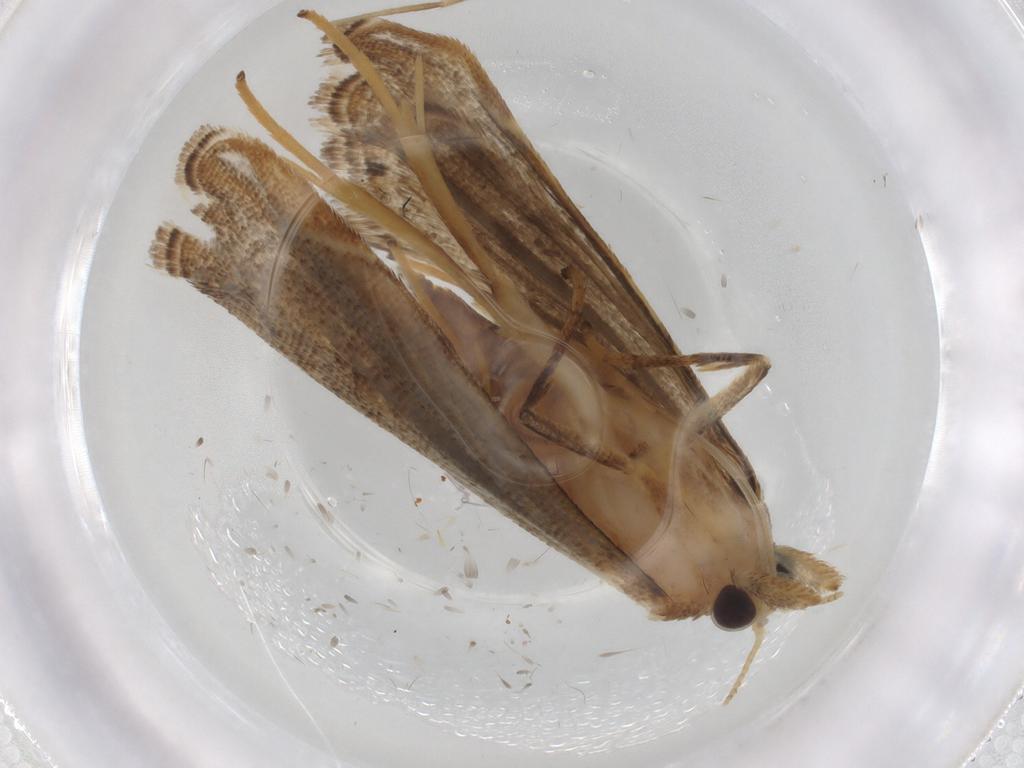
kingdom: Animalia
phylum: Arthropoda
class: Insecta
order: Lepidoptera
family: Crambidae
